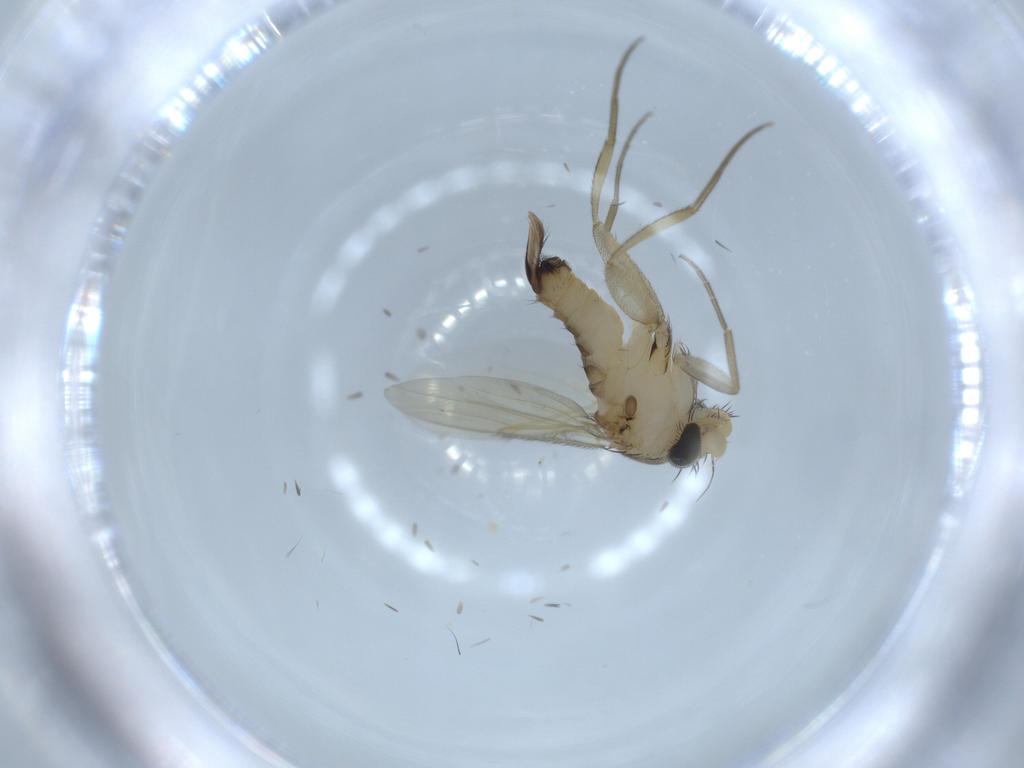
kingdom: Animalia
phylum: Arthropoda
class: Insecta
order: Diptera
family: Phoridae
